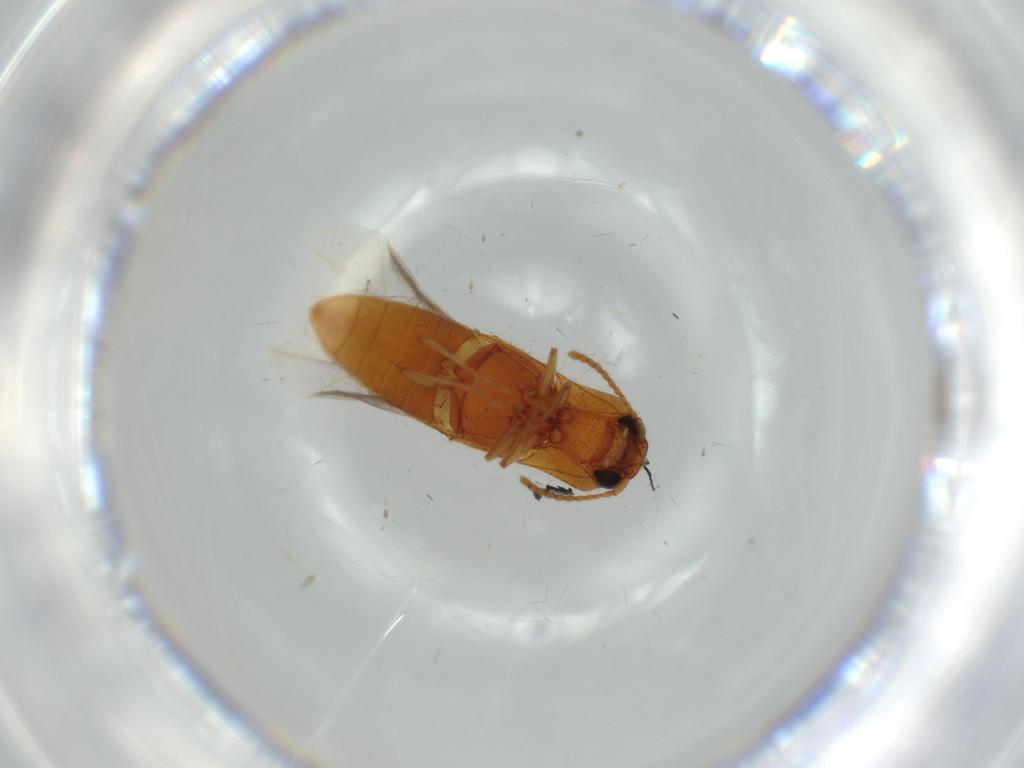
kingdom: Animalia
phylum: Arthropoda
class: Insecta
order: Coleoptera
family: Elateridae
